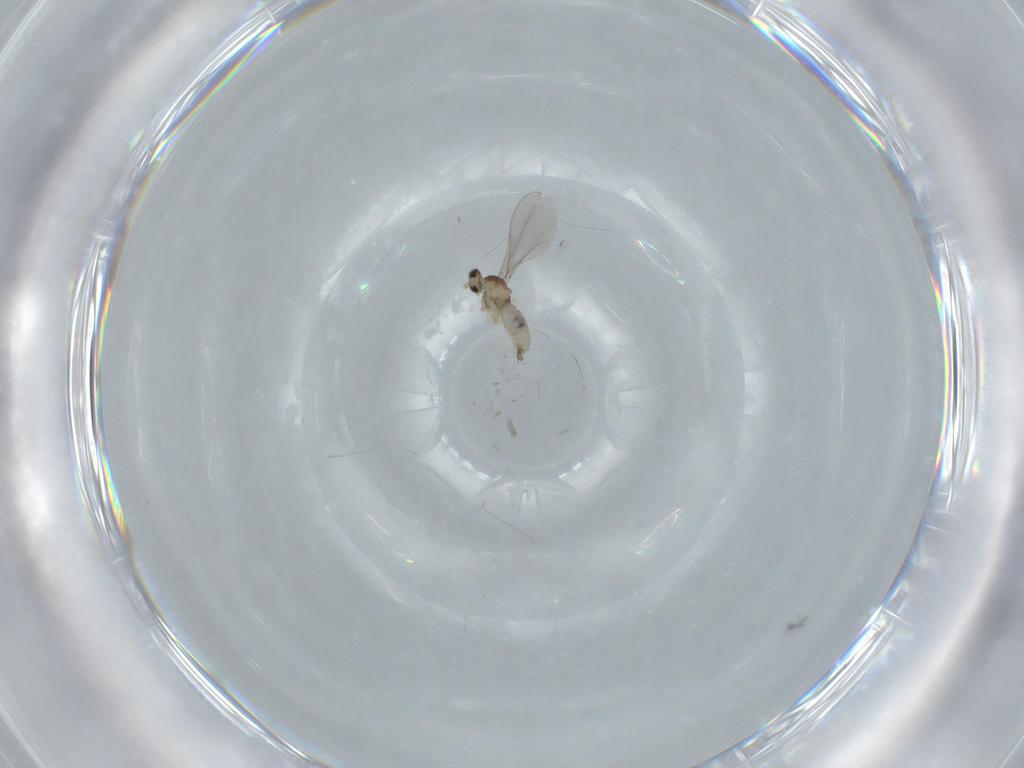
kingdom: Animalia
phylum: Arthropoda
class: Insecta
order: Diptera
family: Cecidomyiidae
